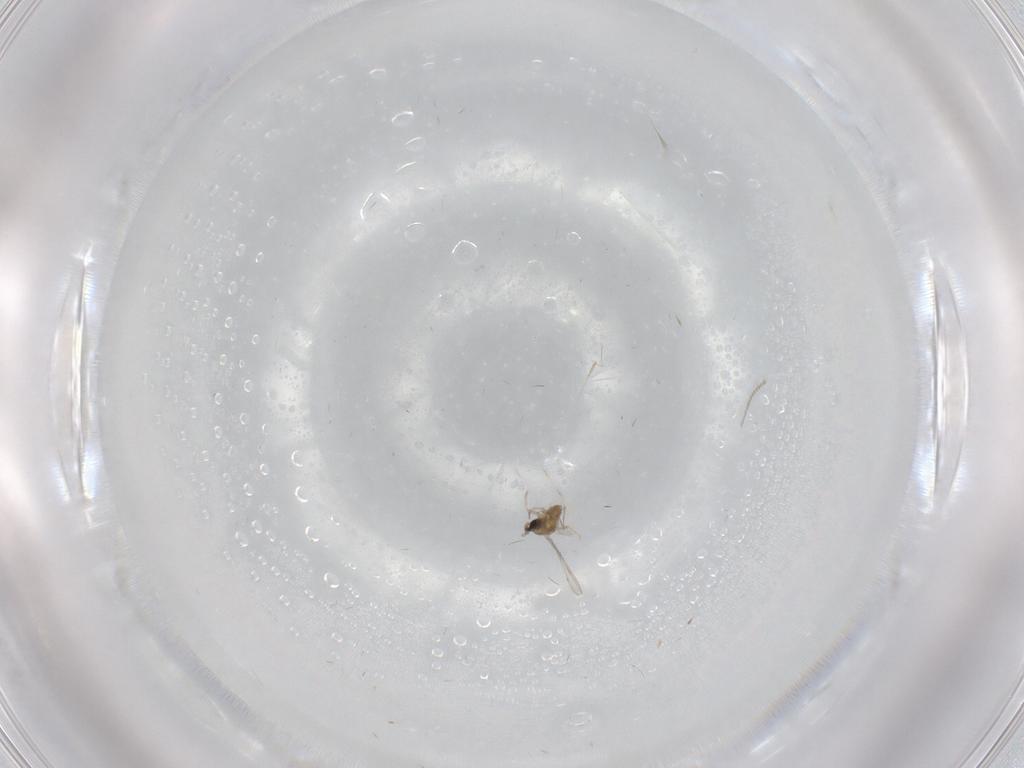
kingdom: Animalia
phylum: Arthropoda
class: Insecta
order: Diptera
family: Cecidomyiidae
